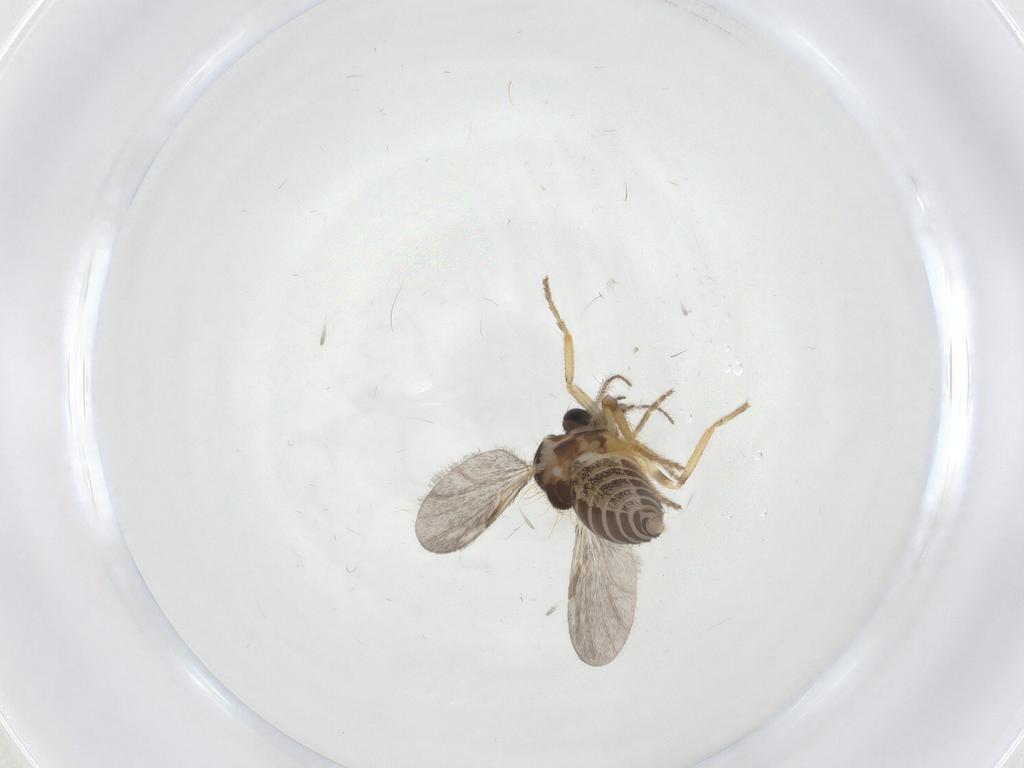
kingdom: Animalia
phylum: Arthropoda
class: Insecta
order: Diptera
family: Ceratopogonidae
